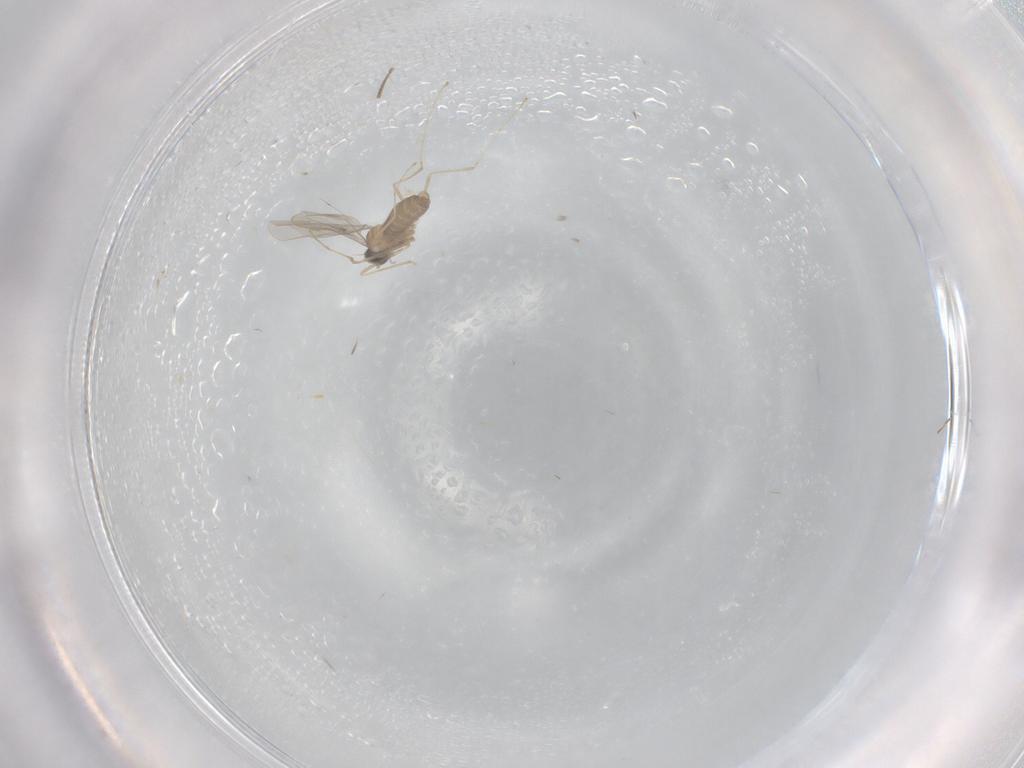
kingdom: Animalia
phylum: Arthropoda
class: Insecta
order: Diptera
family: Cecidomyiidae
